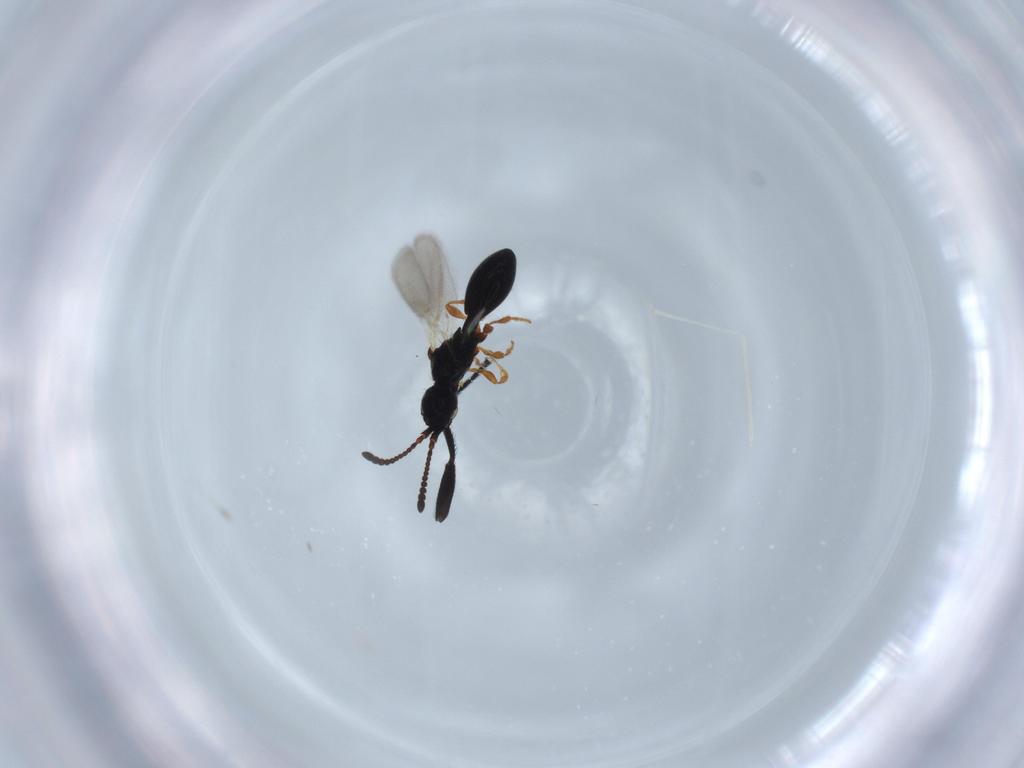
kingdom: Animalia
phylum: Arthropoda
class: Insecta
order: Hymenoptera
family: Diapriidae
